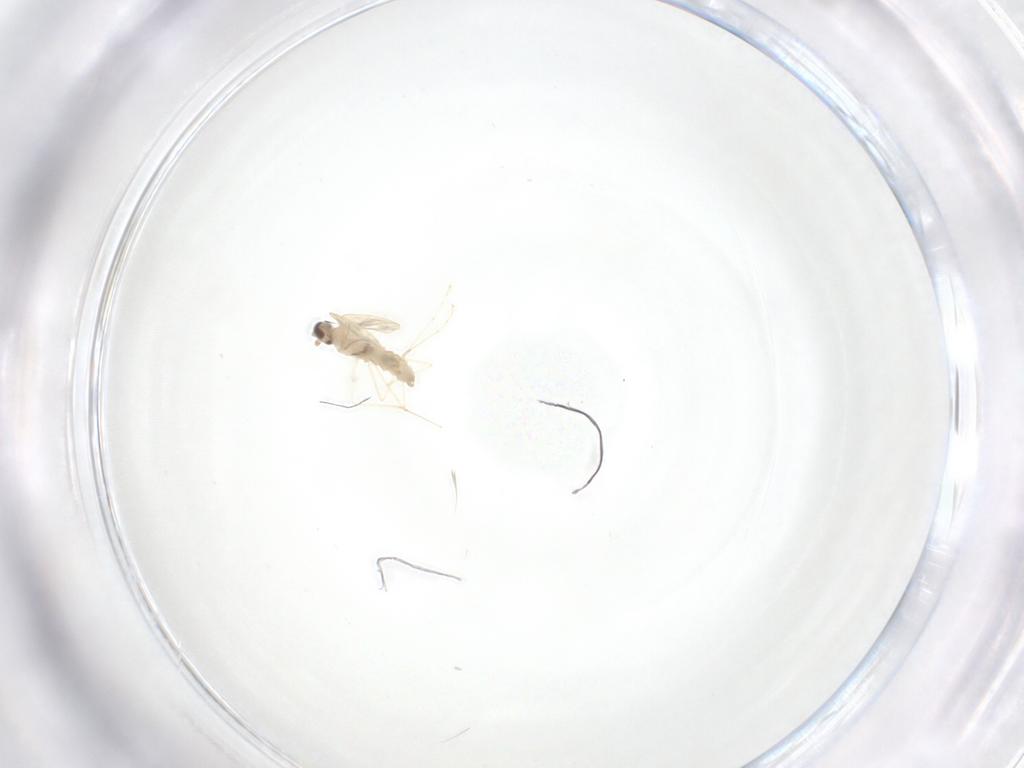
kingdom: Animalia
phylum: Arthropoda
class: Insecta
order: Diptera
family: Cecidomyiidae
